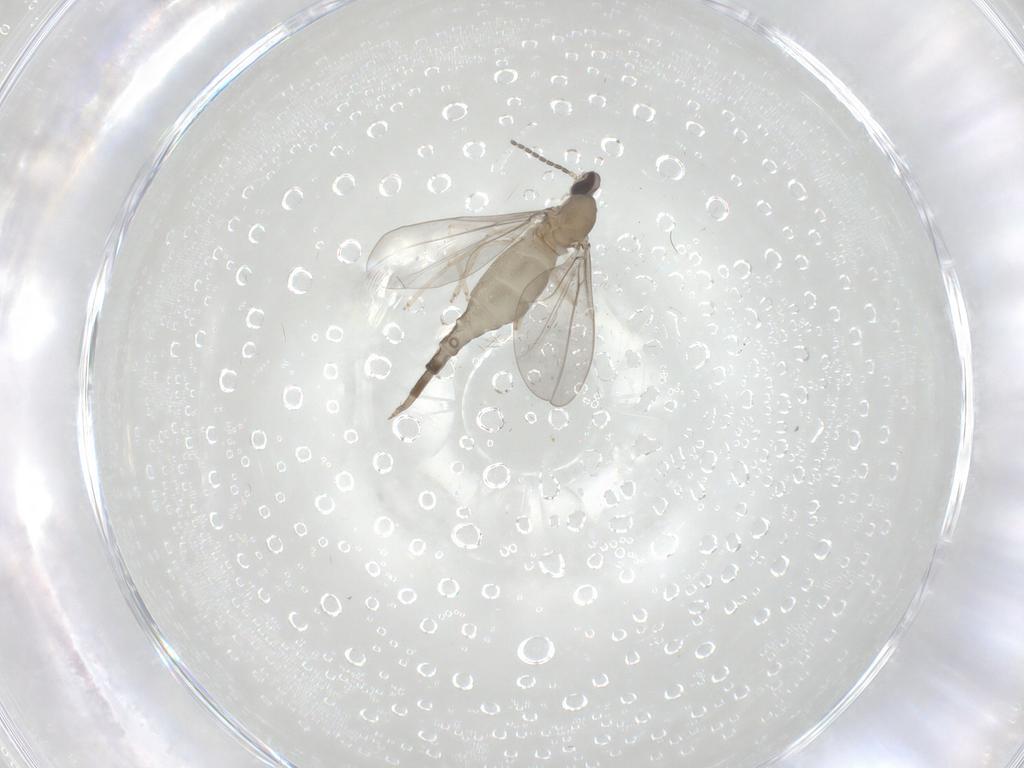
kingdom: Animalia
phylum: Arthropoda
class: Insecta
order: Diptera
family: Cecidomyiidae
